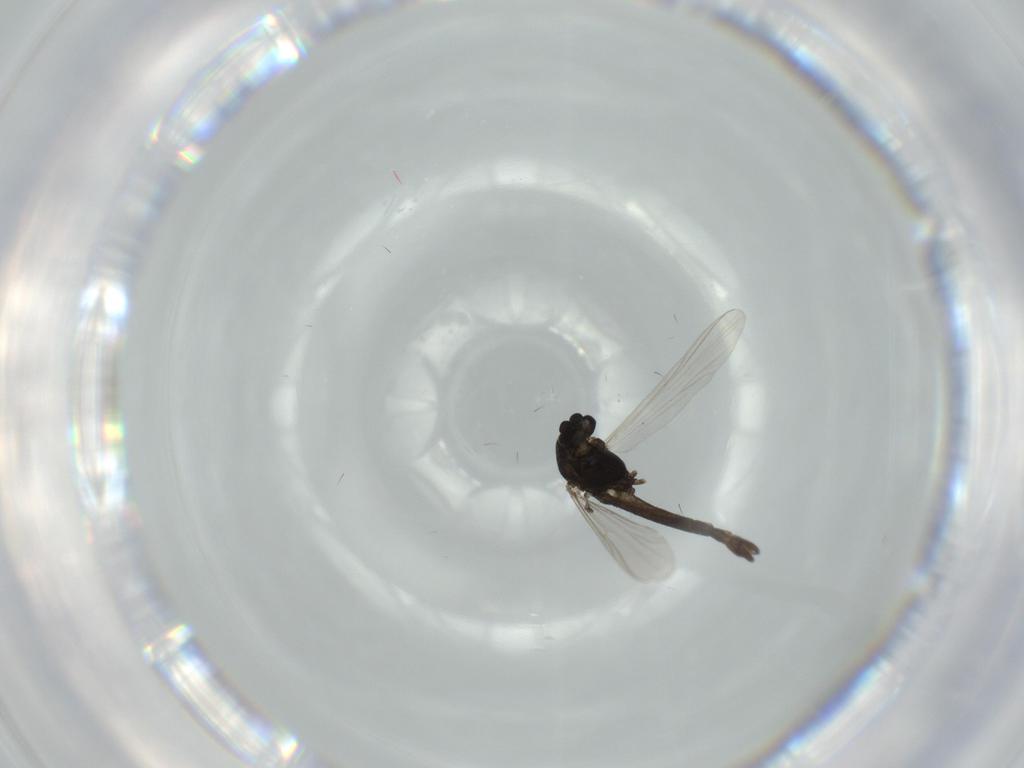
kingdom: Animalia
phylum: Arthropoda
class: Insecta
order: Diptera
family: Chironomidae
